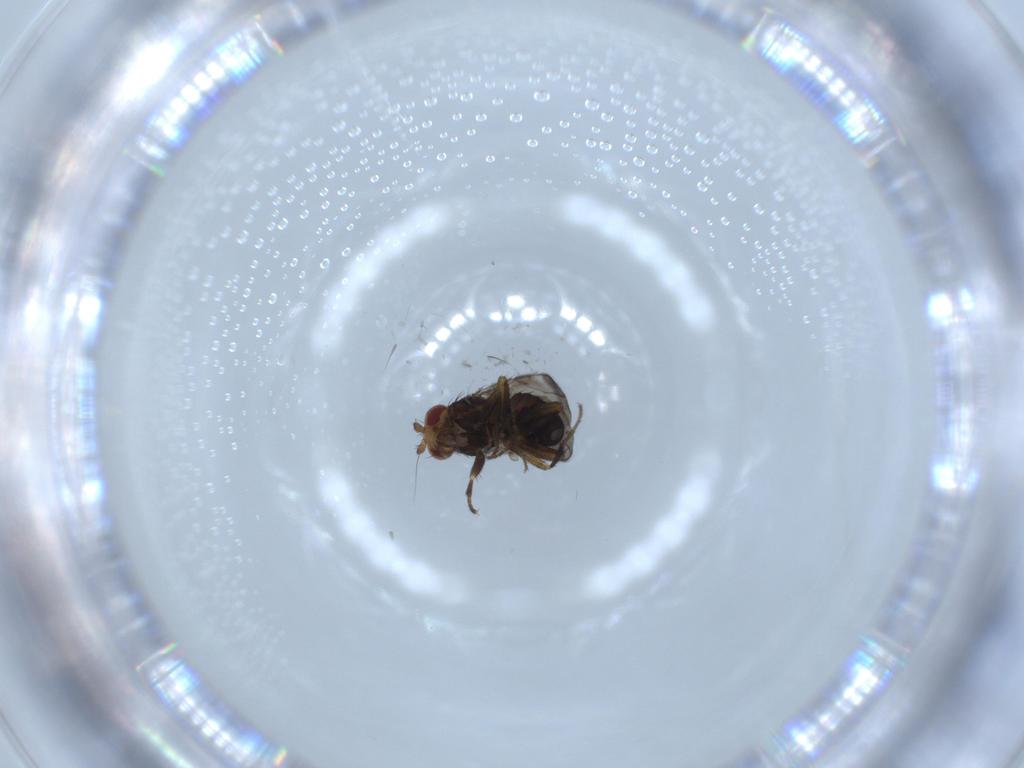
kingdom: Animalia
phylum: Arthropoda
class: Insecta
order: Diptera
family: Sphaeroceridae
